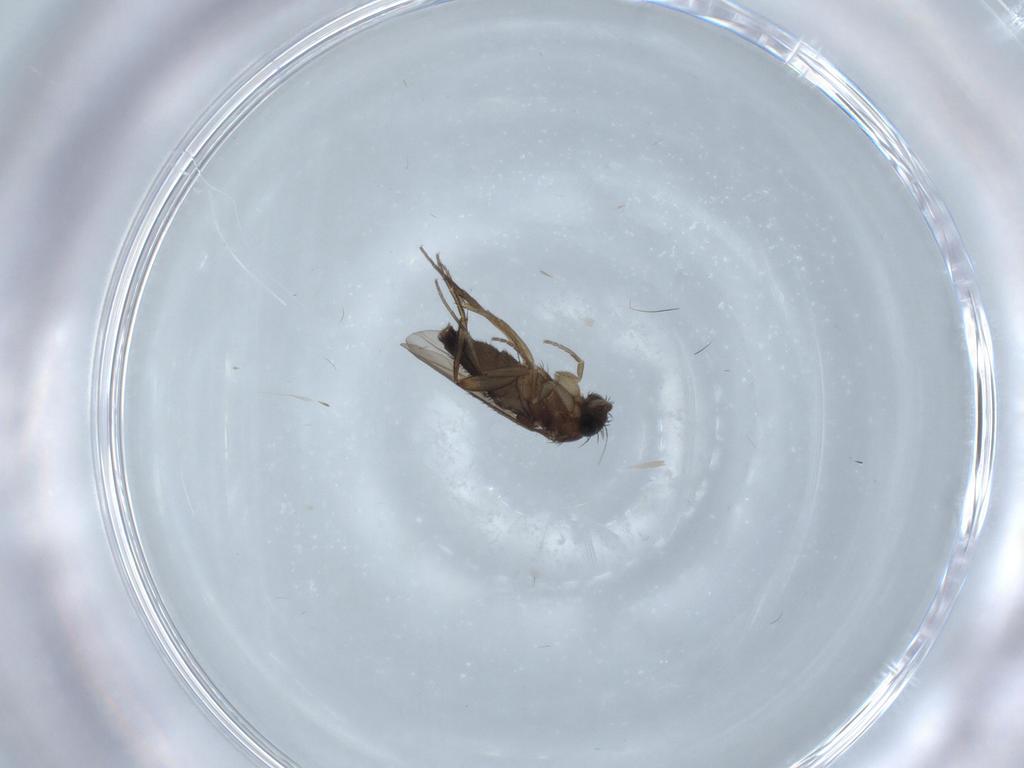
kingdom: Animalia
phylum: Arthropoda
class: Insecta
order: Diptera
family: Phoridae
